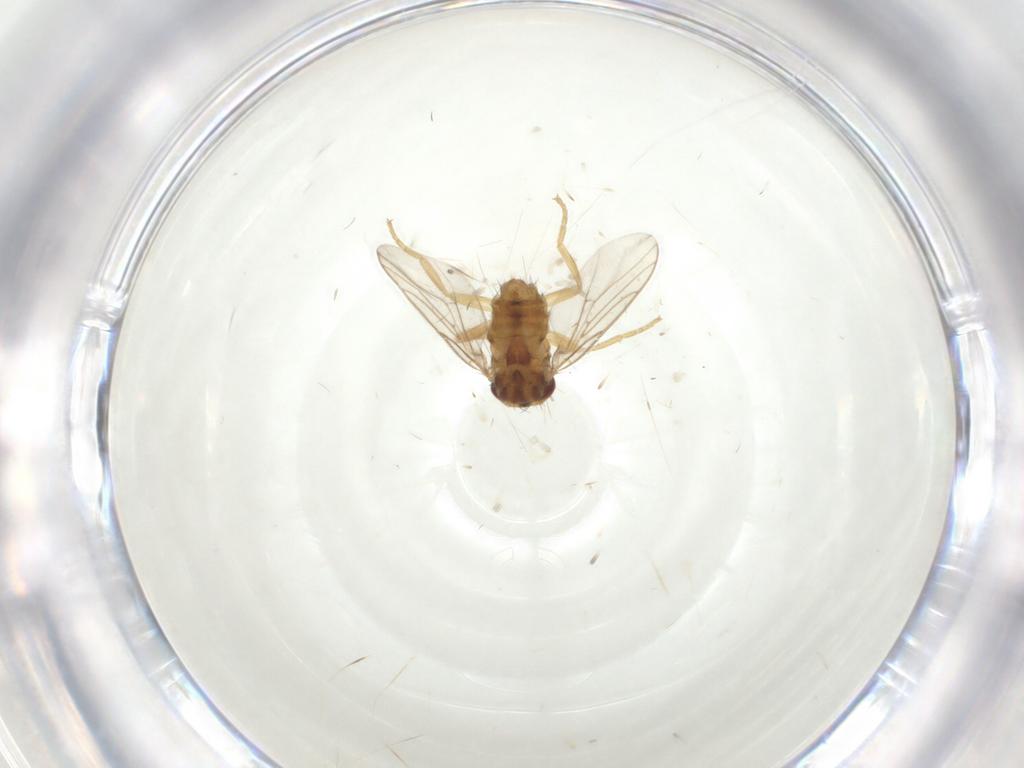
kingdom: Animalia
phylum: Arthropoda
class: Insecta
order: Diptera
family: Chloropidae
